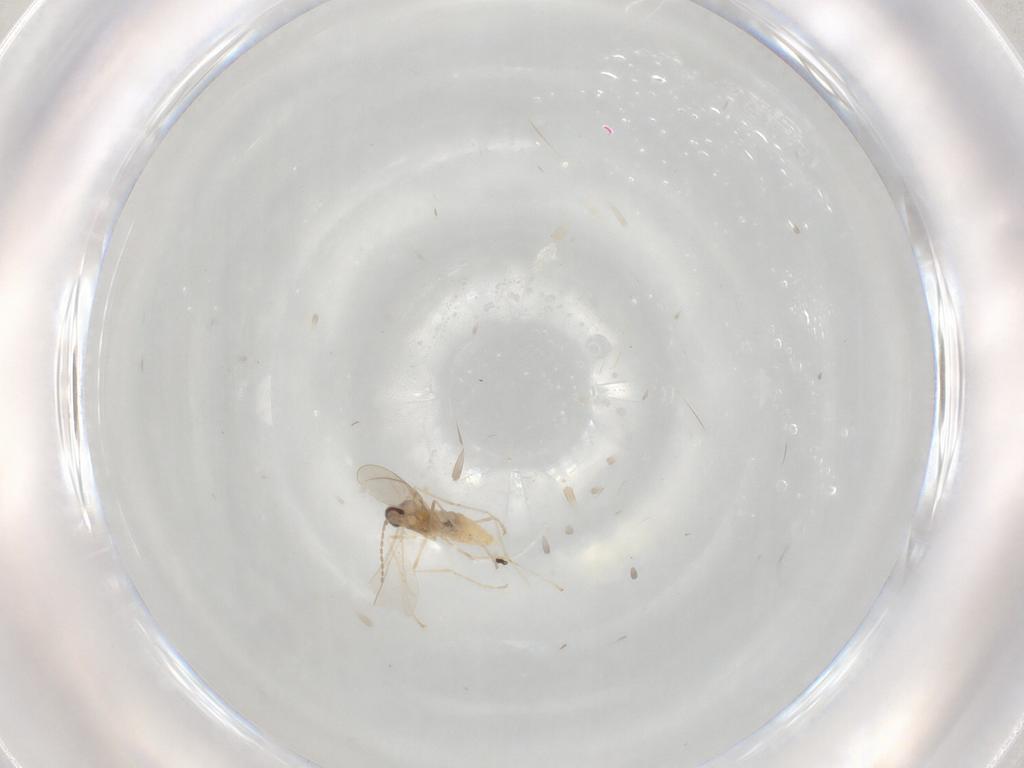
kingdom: Animalia
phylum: Arthropoda
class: Insecta
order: Diptera
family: Cecidomyiidae
